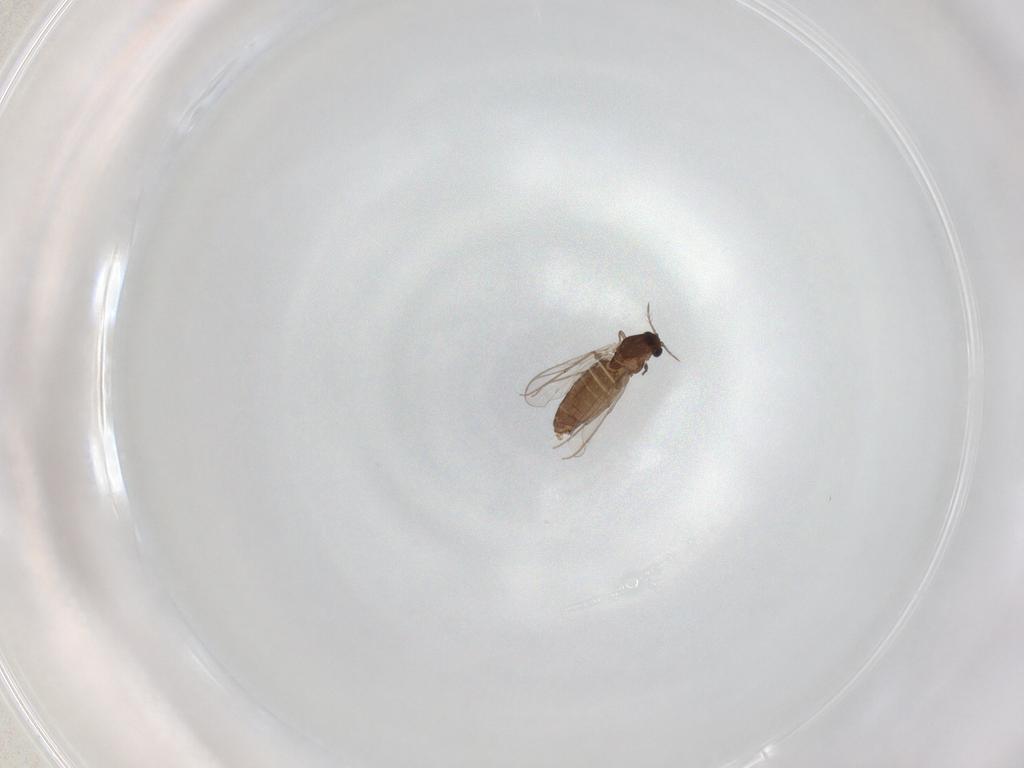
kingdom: Animalia
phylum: Arthropoda
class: Insecta
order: Diptera
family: Chironomidae
